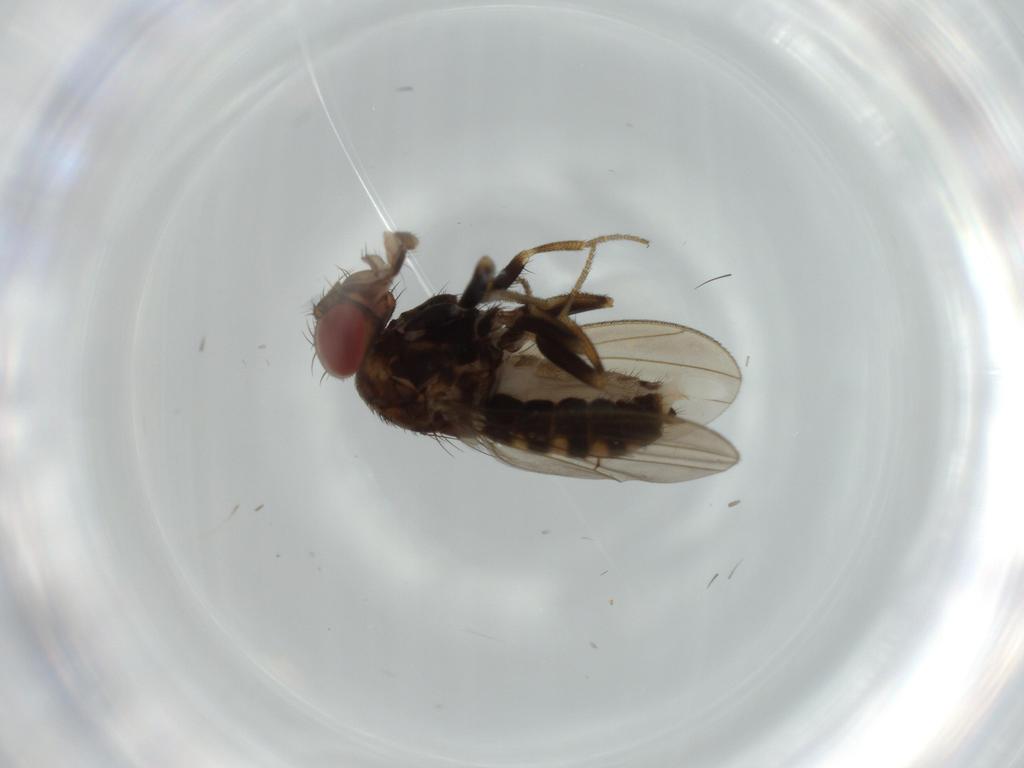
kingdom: Animalia
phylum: Arthropoda
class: Insecta
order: Diptera
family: Drosophilidae
